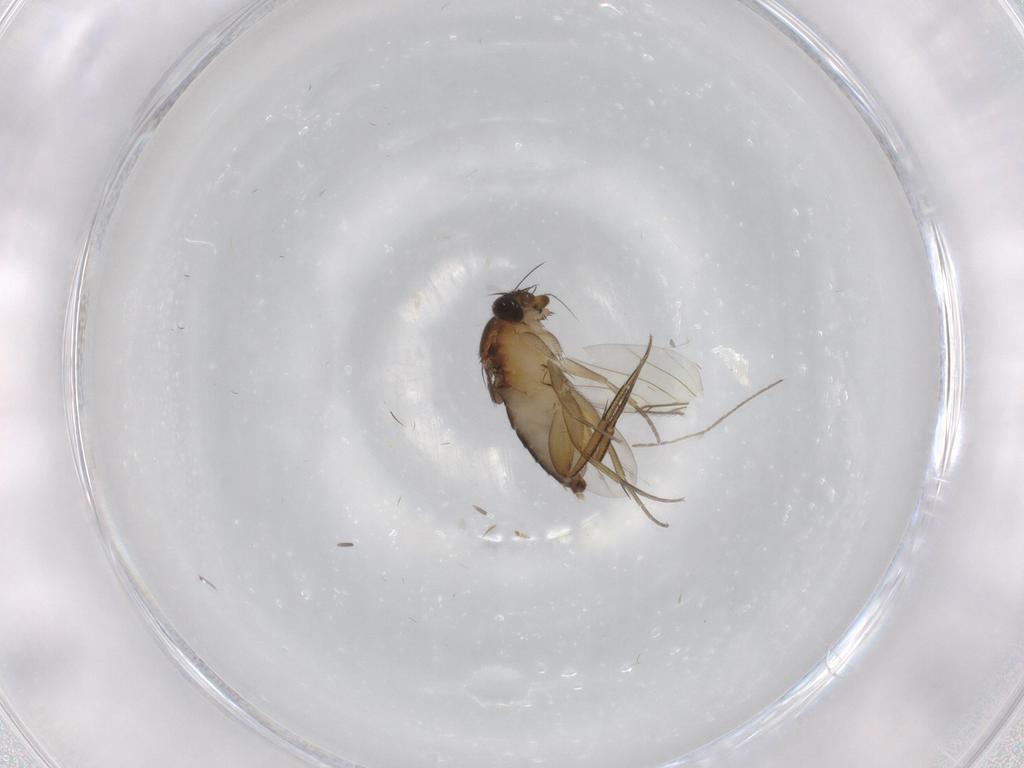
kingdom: Animalia
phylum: Arthropoda
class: Insecta
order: Diptera
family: Phoridae
